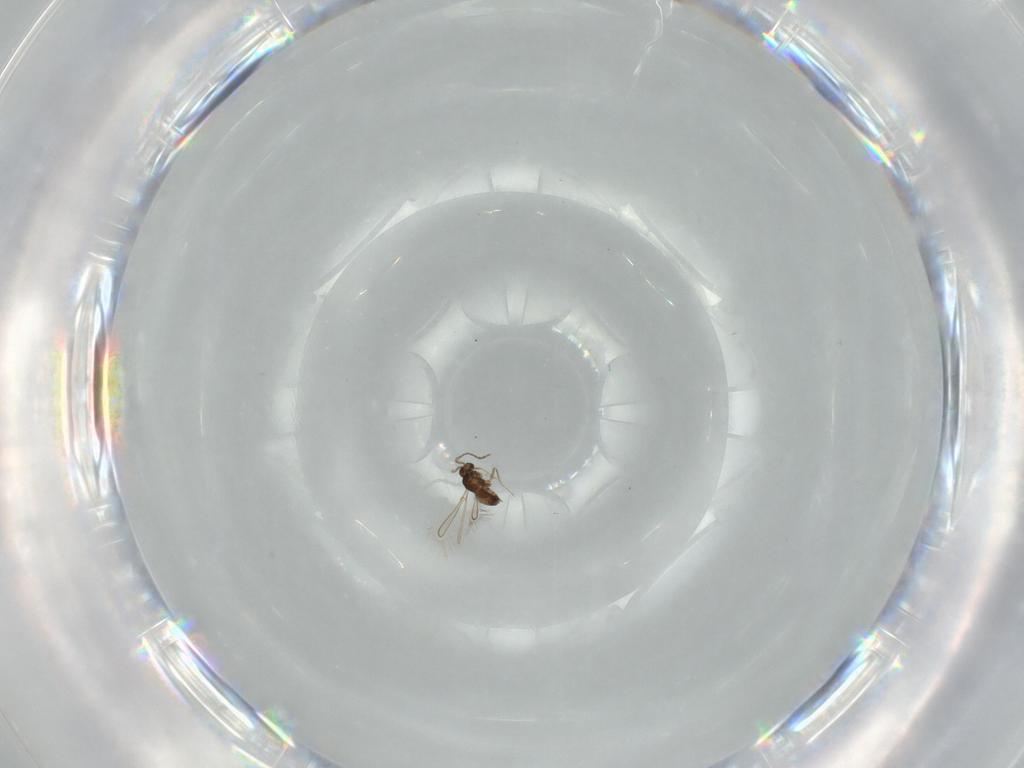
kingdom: Animalia
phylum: Arthropoda
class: Insecta
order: Hymenoptera
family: Mymaridae
